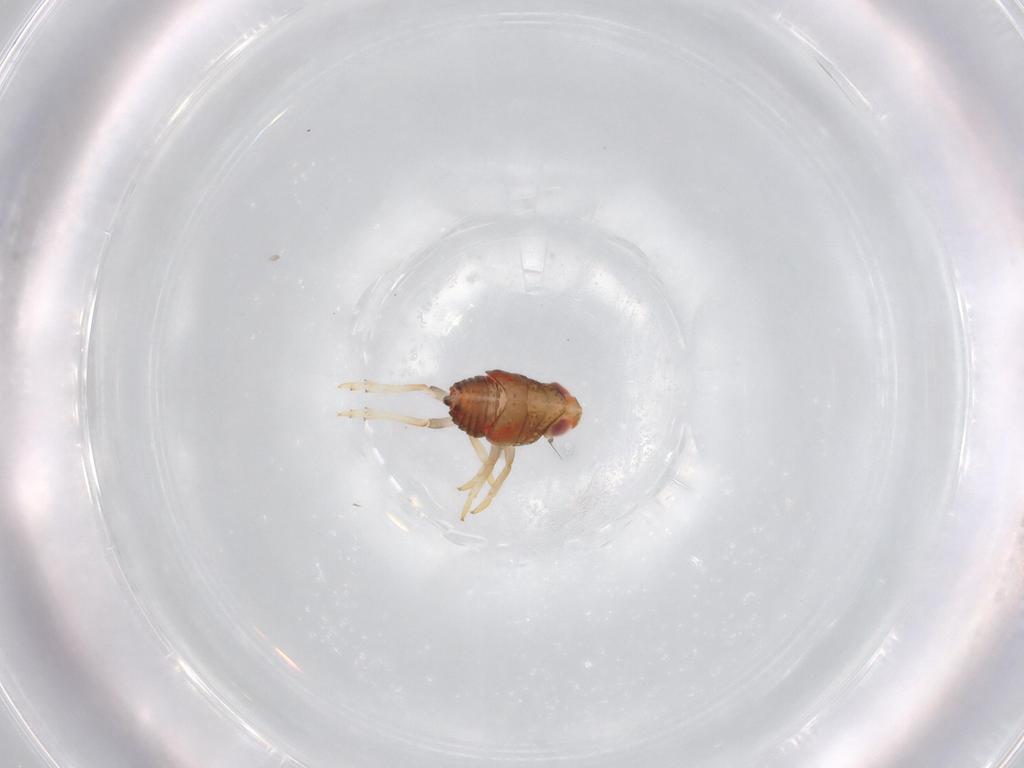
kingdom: Animalia
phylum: Arthropoda
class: Insecta
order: Hemiptera
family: Issidae
